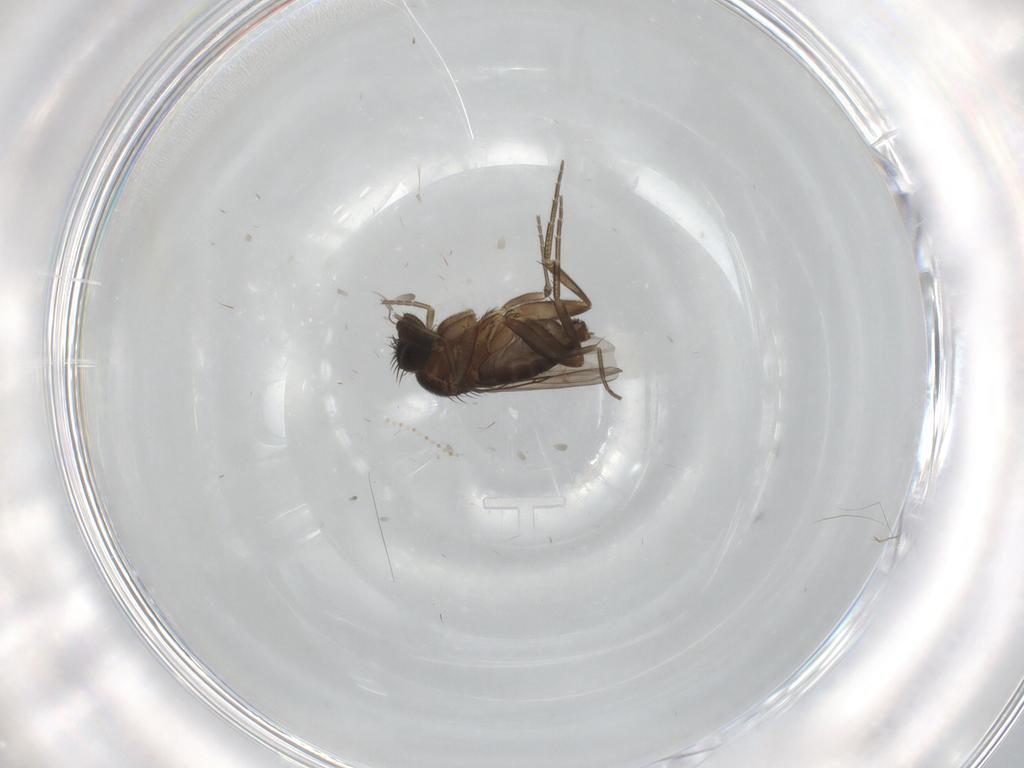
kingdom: Animalia
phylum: Arthropoda
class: Insecta
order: Diptera
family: Phoridae
